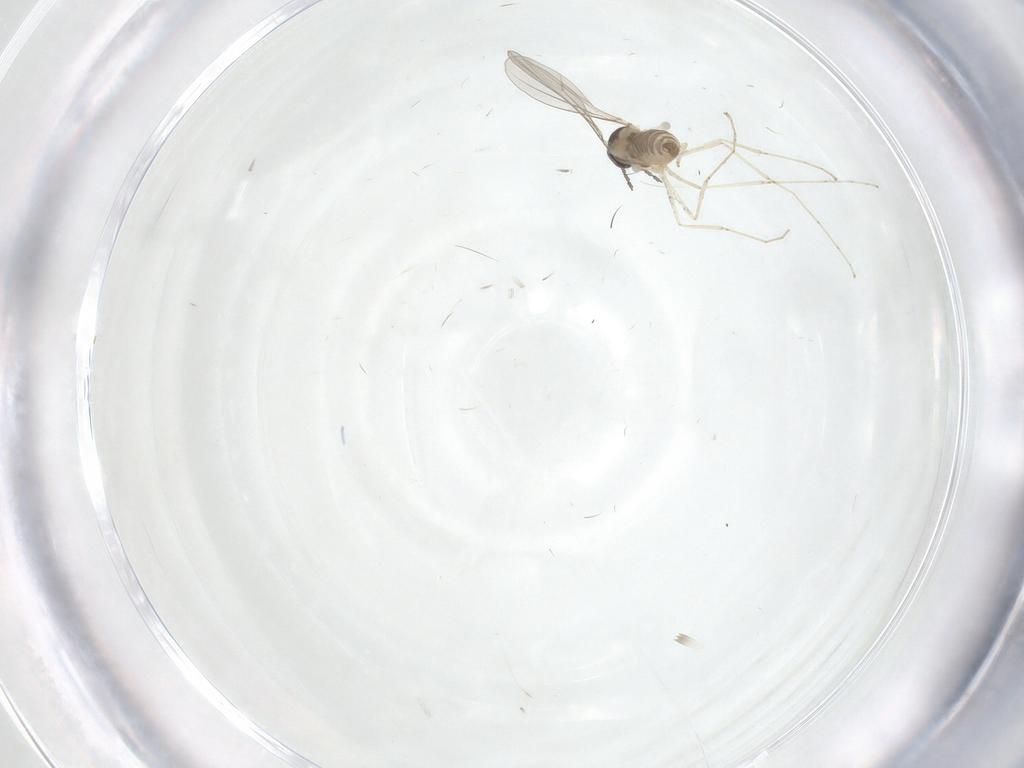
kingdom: Animalia
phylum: Arthropoda
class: Insecta
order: Diptera
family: Cecidomyiidae
